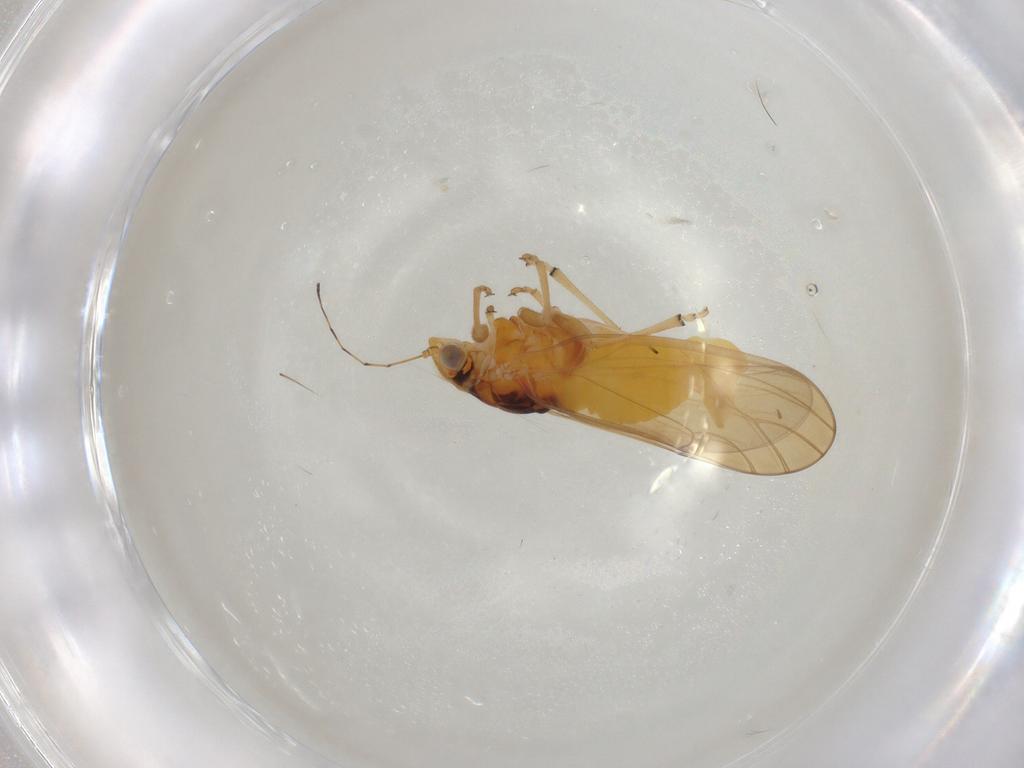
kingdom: Animalia
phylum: Arthropoda
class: Insecta
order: Hemiptera
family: Psylloidea_incertae_sedis
